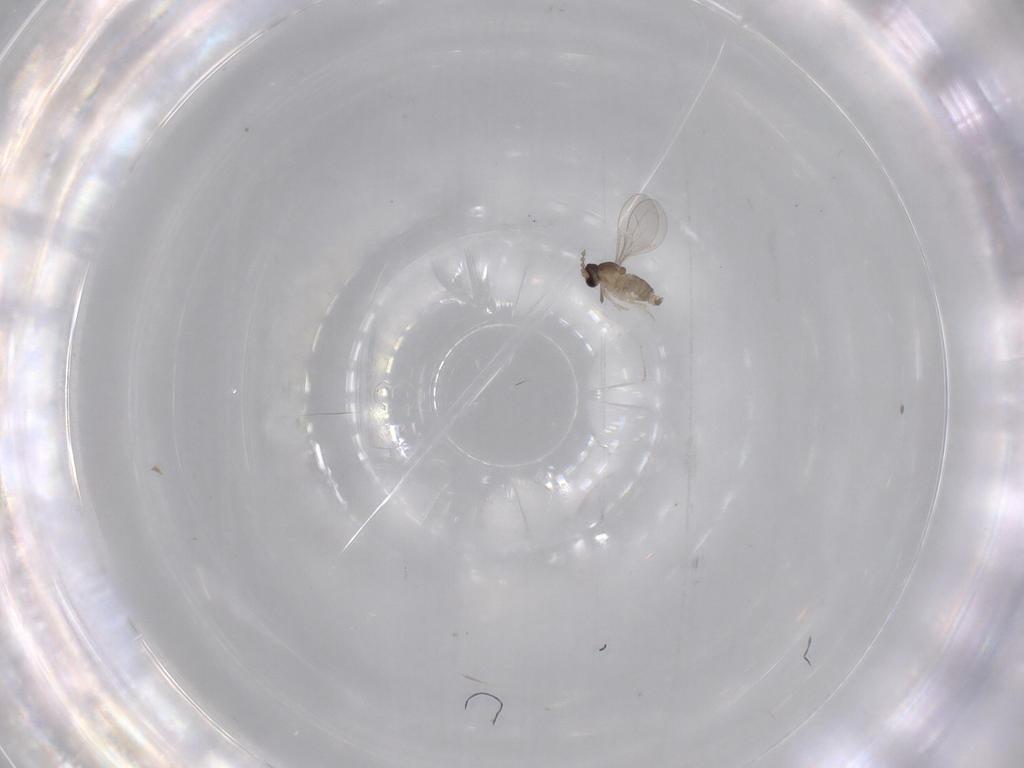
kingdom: Animalia
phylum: Arthropoda
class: Insecta
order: Diptera
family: Cecidomyiidae
